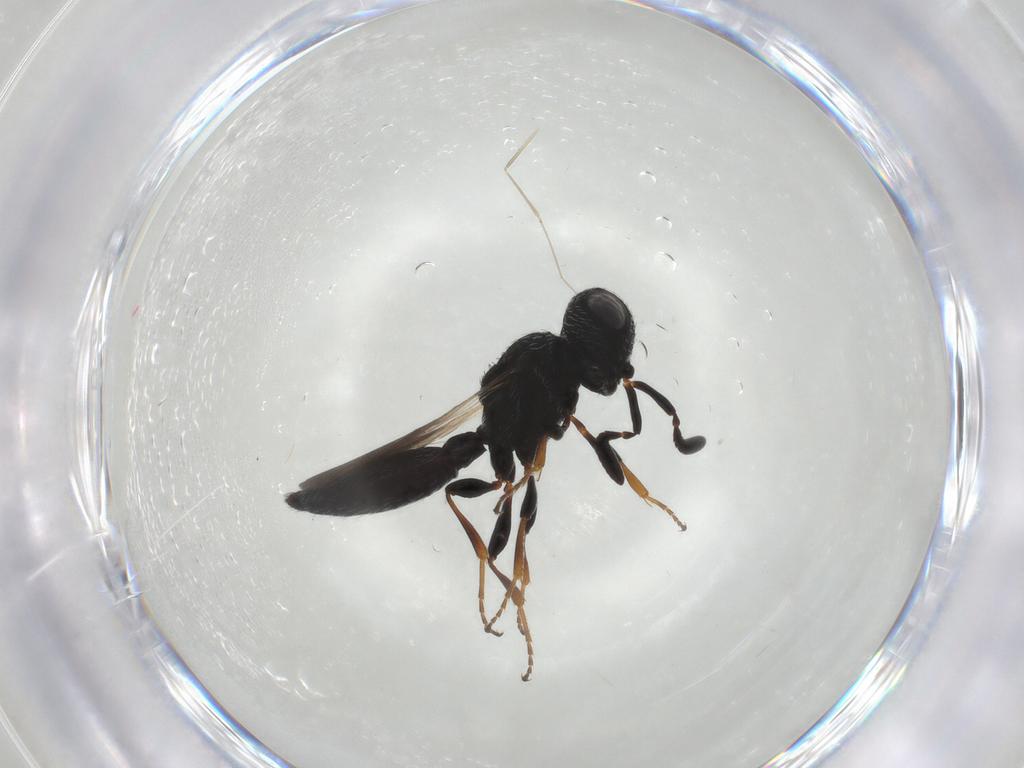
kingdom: Animalia
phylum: Arthropoda
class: Insecta
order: Hymenoptera
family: Scelionidae
